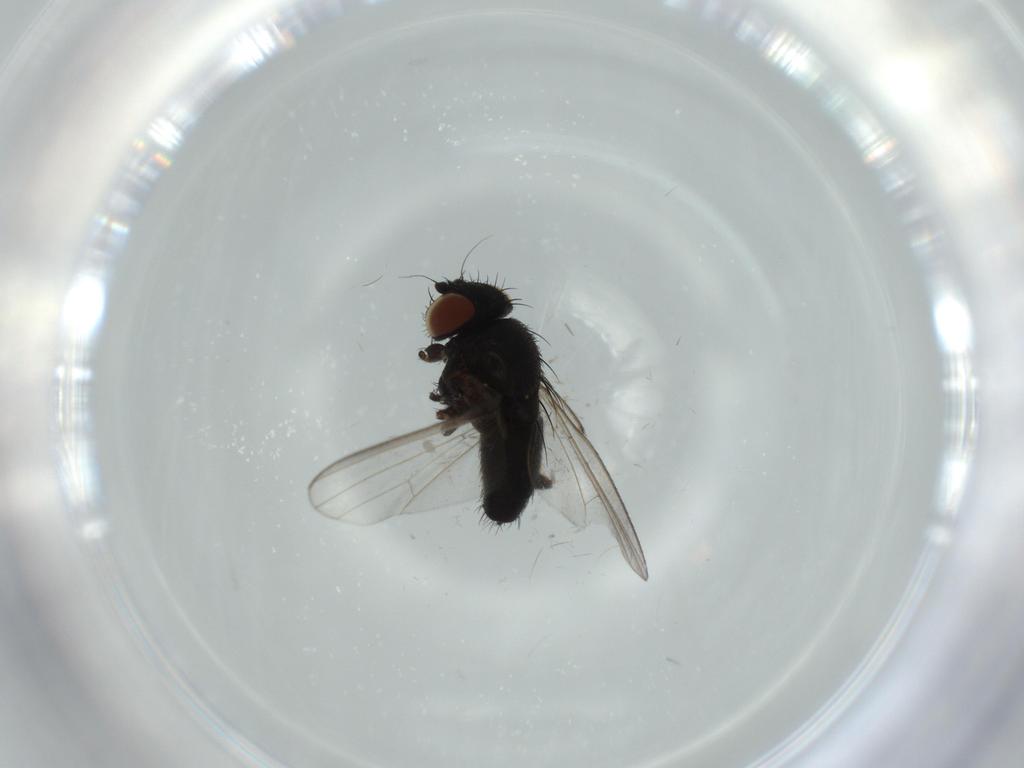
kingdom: Animalia
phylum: Arthropoda
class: Insecta
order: Diptera
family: Milichiidae
